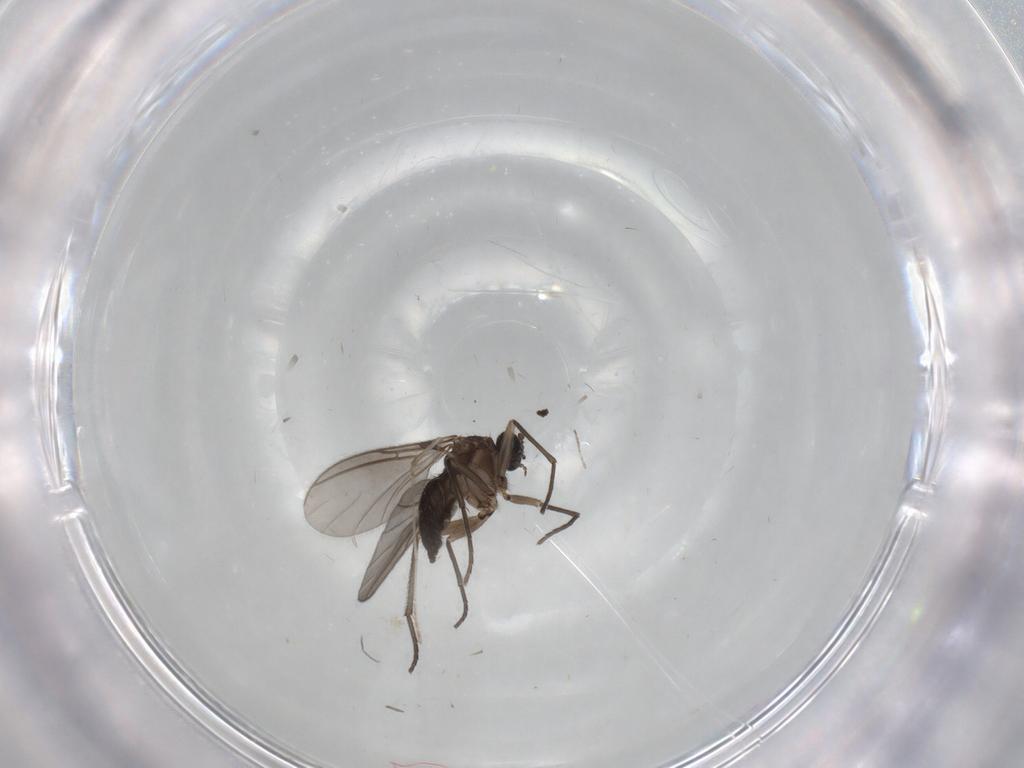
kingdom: Animalia
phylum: Arthropoda
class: Insecta
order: Diptera
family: Sciaridae
